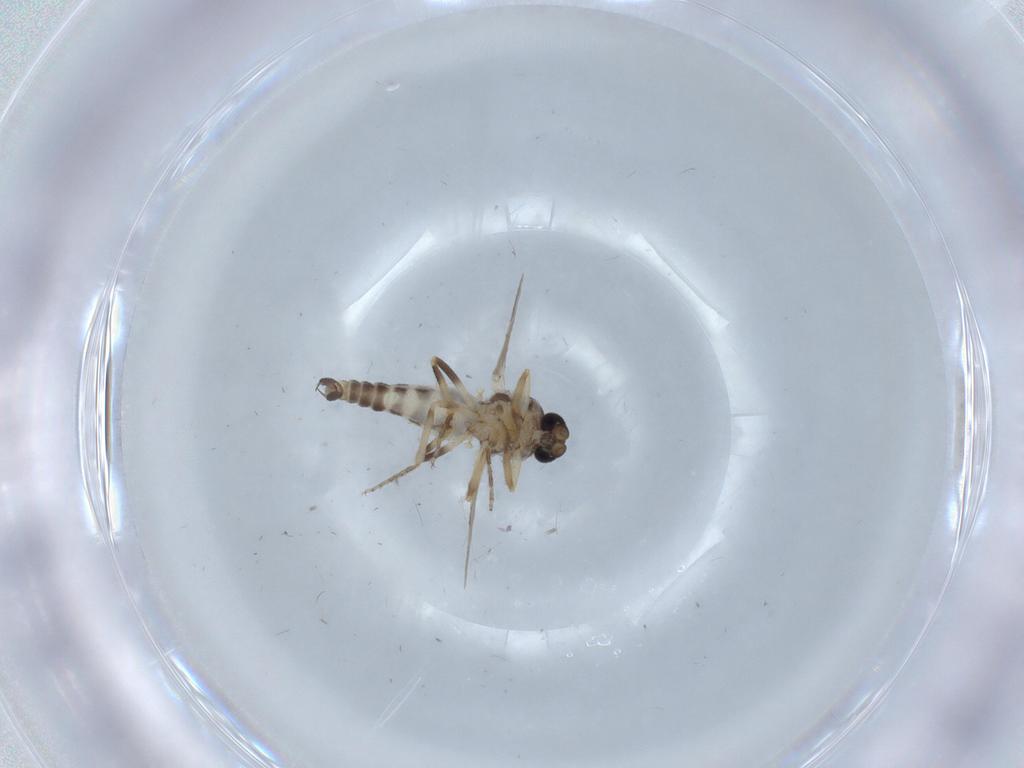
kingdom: Animalia
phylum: Arthropoda
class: Insecta
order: Diptera
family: Ceratopogonidae
